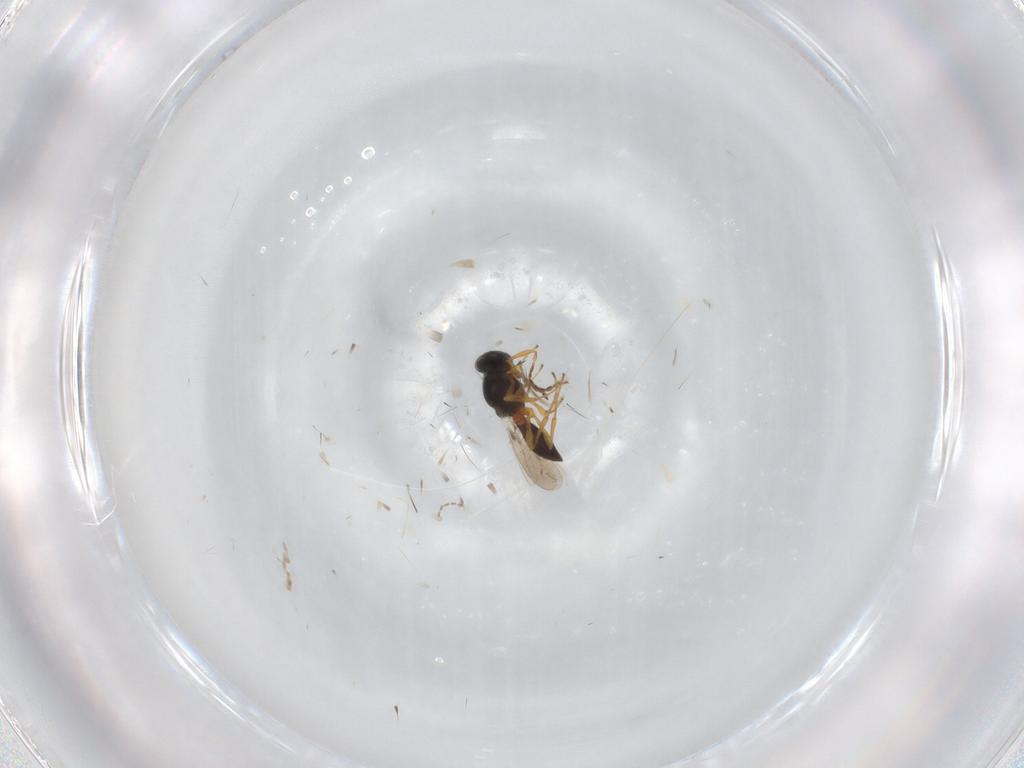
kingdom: Animalia
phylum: Arthropoda
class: Insecta
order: Hymenoptera
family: Platygastridae
